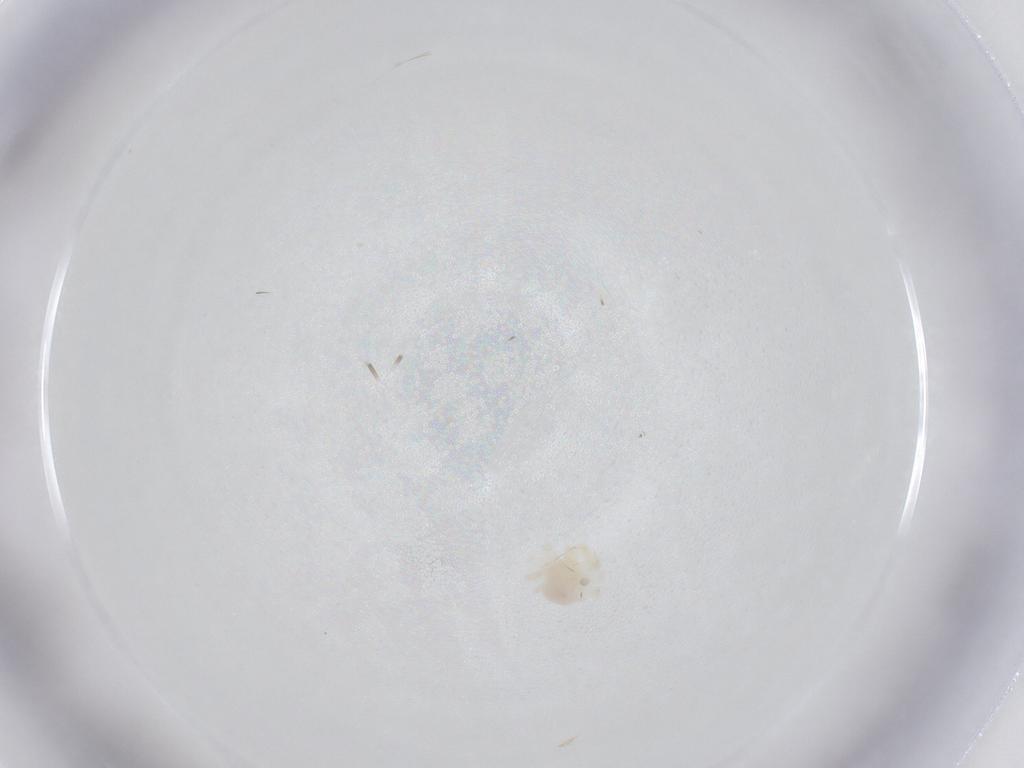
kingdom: Animalia
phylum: Arthropoda
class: Arachnida
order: Trombidiformes
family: Anystidae
